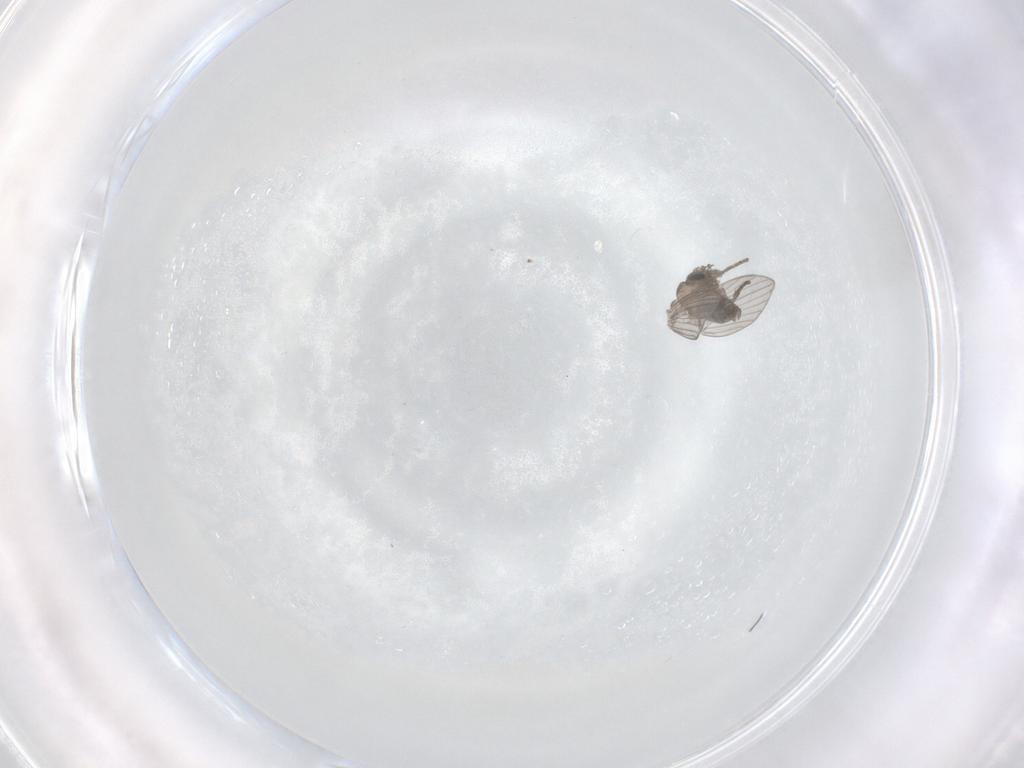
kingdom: Animalia
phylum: Arthropoda
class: Insecta
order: Diptera
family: Psychodidae
